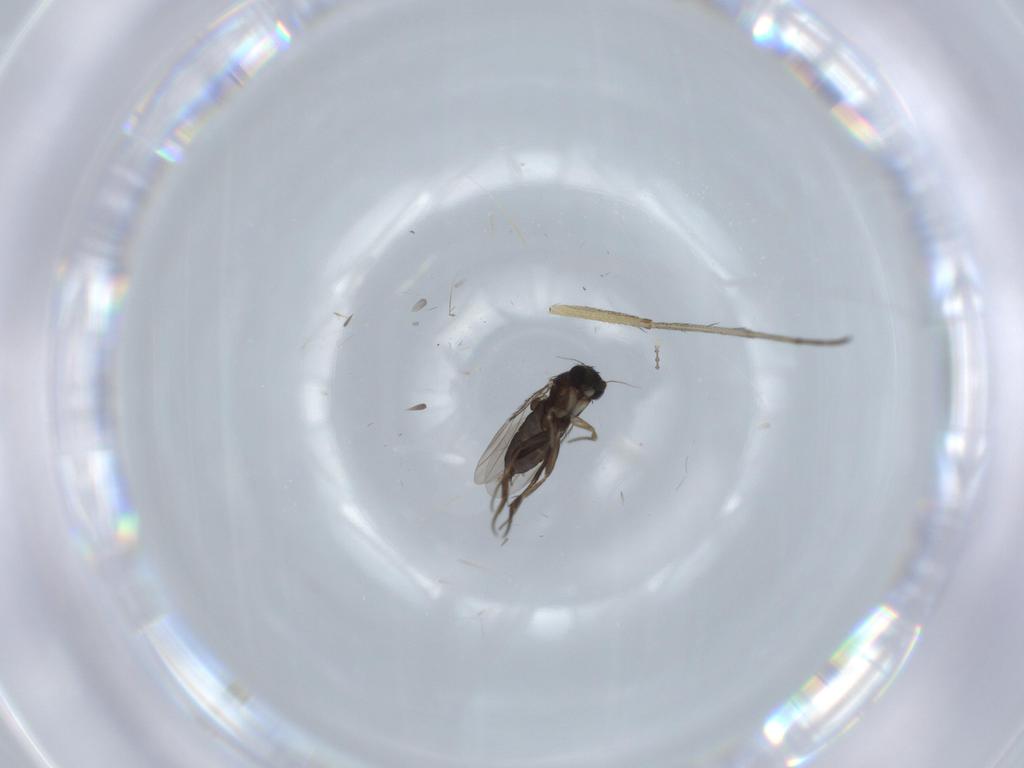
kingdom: Animalia
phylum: Arthropoda
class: Insecta
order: Diptera
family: Phoridae
